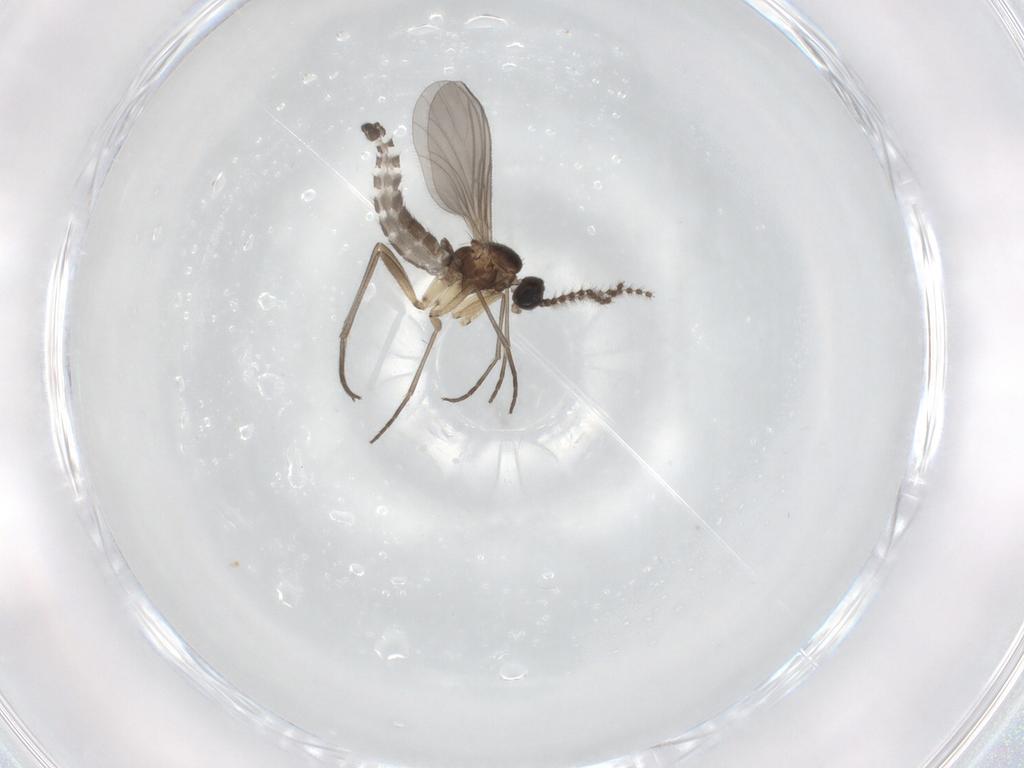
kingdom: Animalia
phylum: Arthropoda
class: Insecta
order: Diptera
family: Sciaridae
